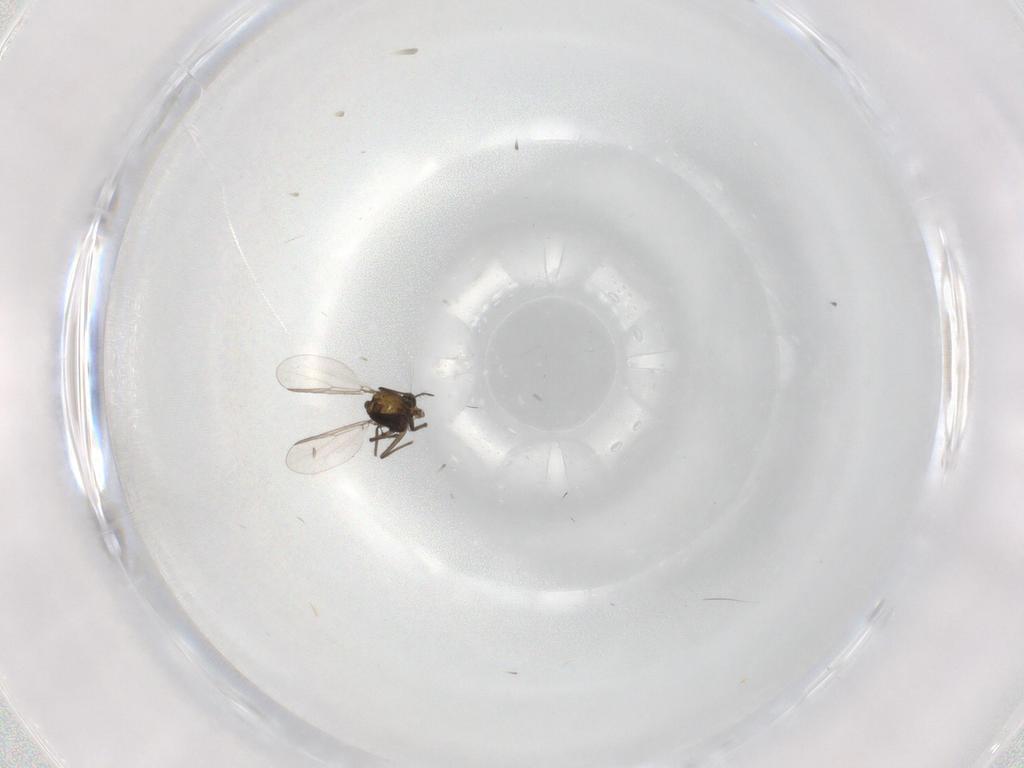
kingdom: Animalia
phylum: Arthropoda
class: Insecta
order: Diptera
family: Chironomidae
